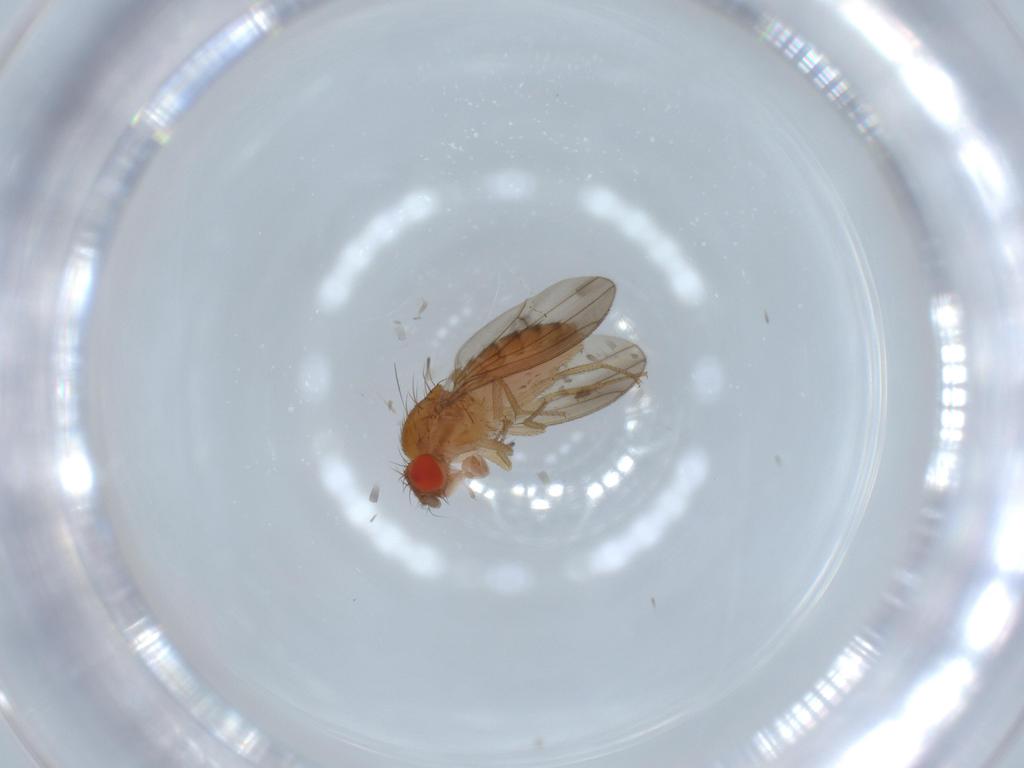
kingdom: Animalia
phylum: Arthropoda
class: Insecta
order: Diptera
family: Drosophilidae
